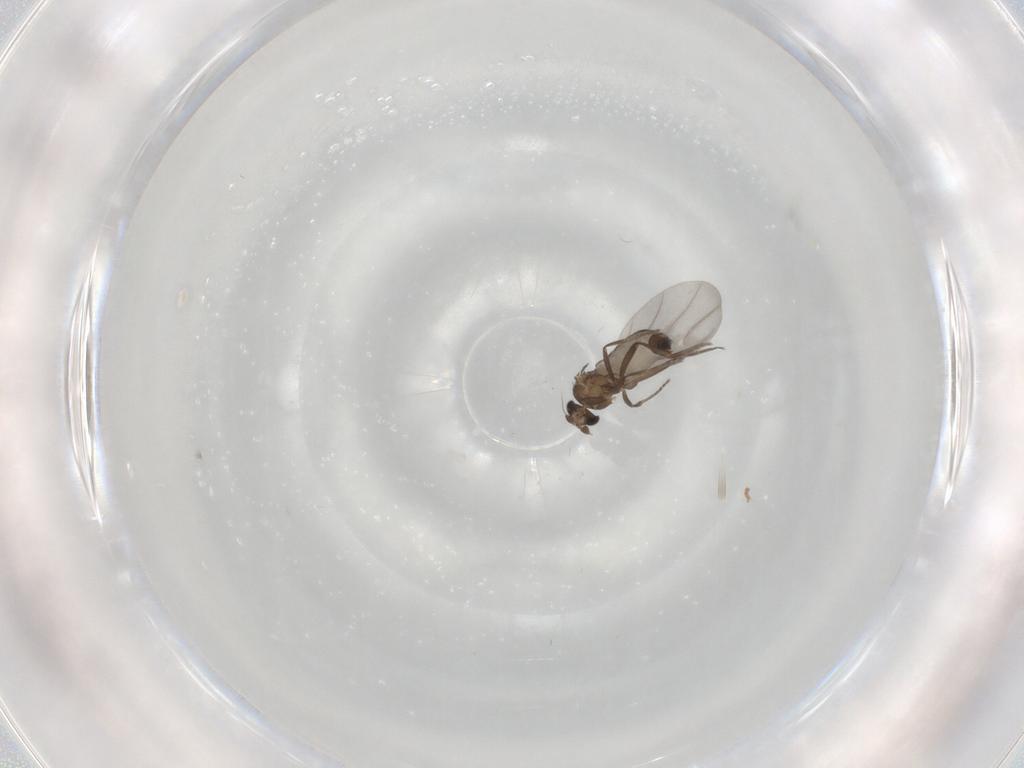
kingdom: Animalia
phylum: Arthropoda
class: Insecta
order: Diptera
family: Phoridae
